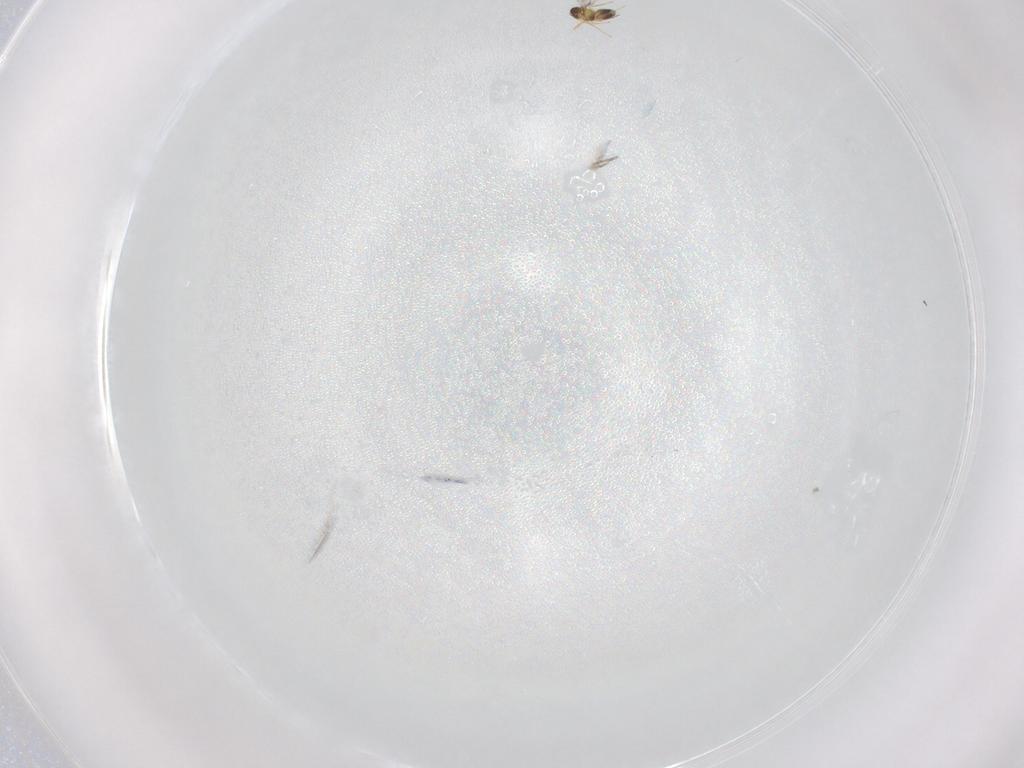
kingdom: Animalia
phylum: Arthropoda
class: Insecta
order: Hymenoptera
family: Mymaridae
